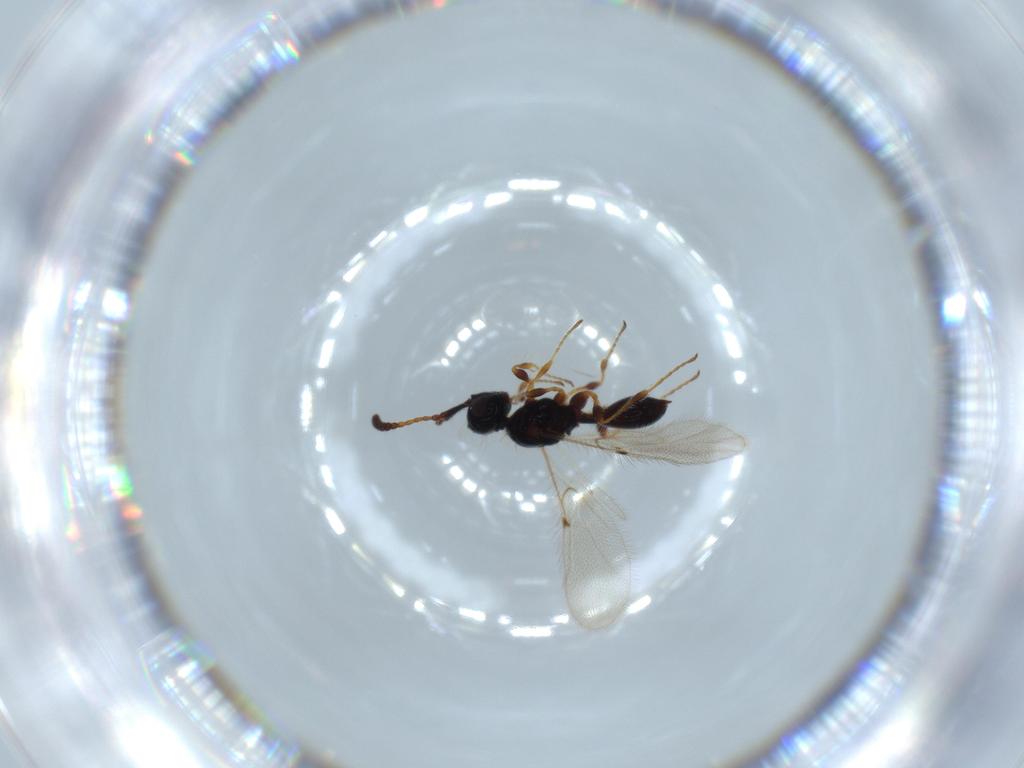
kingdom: Animalia
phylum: Arthropoda
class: Insecta
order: Hymenoptera
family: Diapriidae
